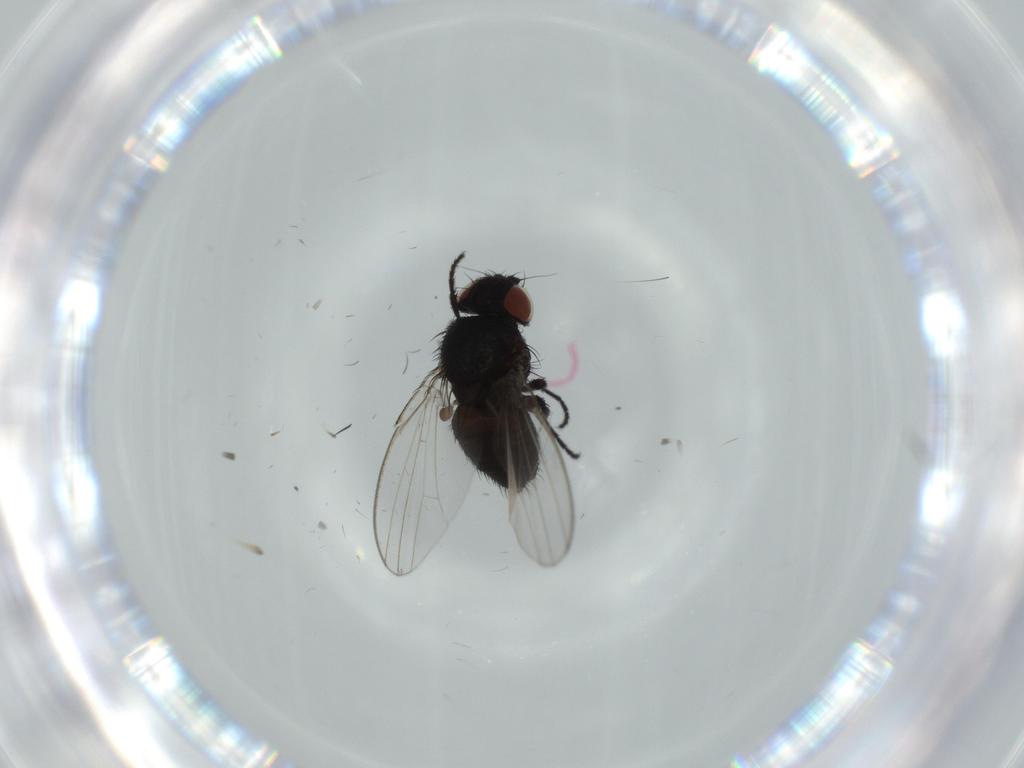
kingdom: Animalia
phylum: Arthropoda
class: Insecta
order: Diptera
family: Milichiidae
